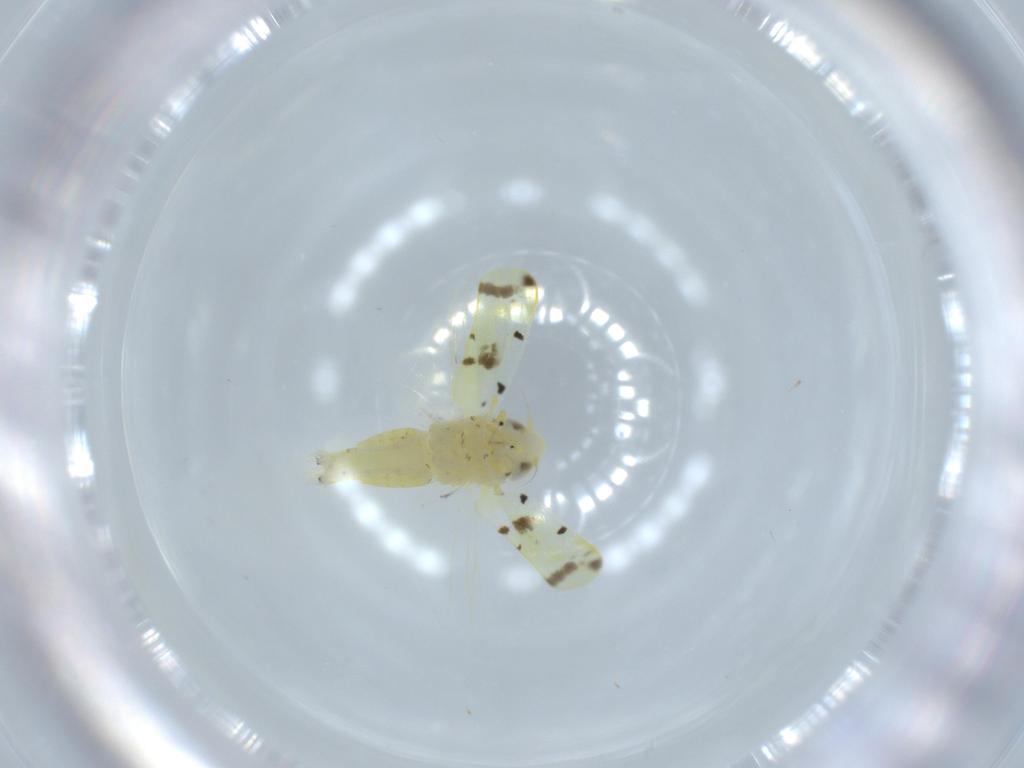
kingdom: Animalia
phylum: Arthropoda
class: Insecta
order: Hemiptera
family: Cicadellidae
